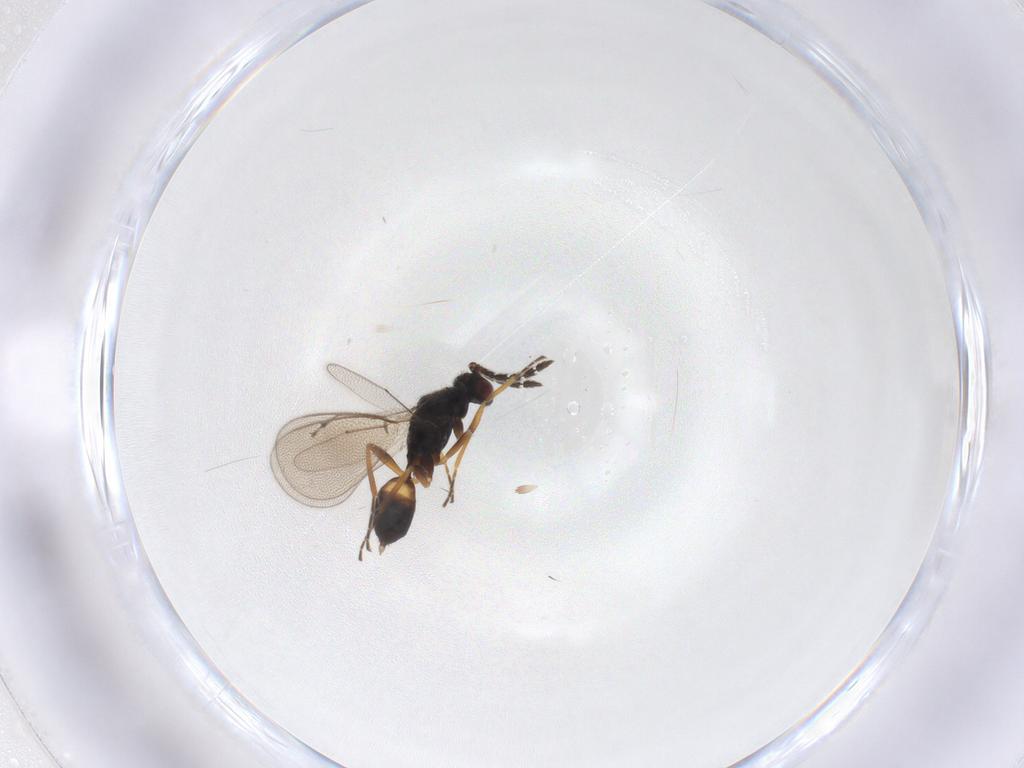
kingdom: Animalia
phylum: Arthropoda
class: Insecta
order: Hymenoptera
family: Eulophidae
